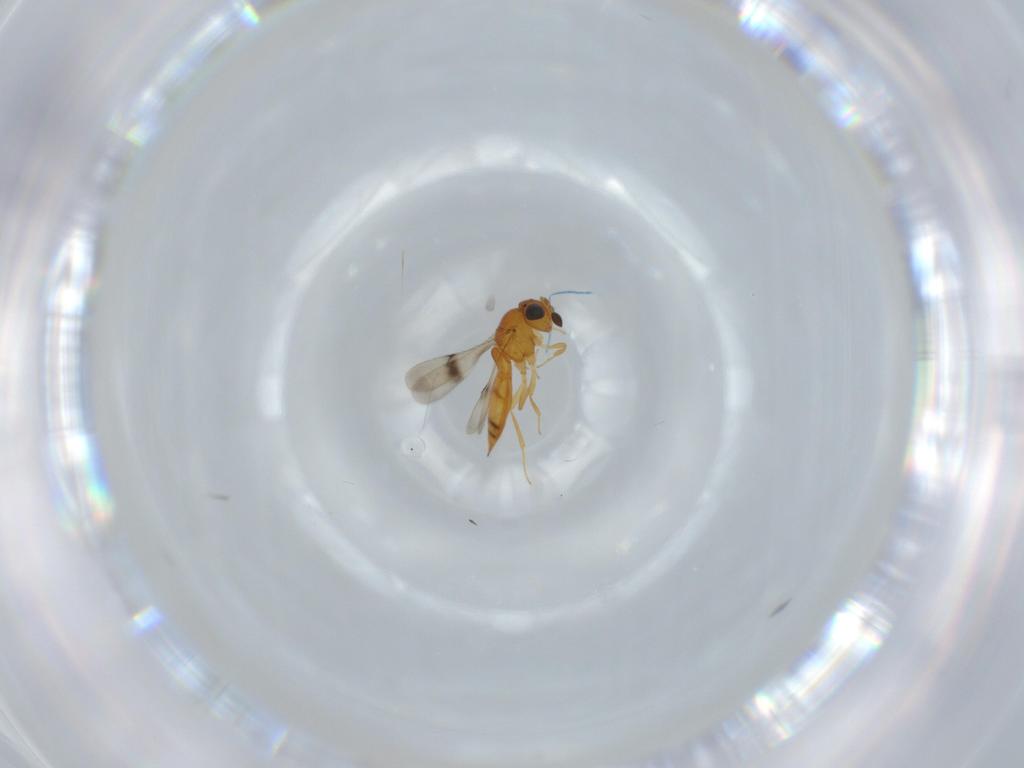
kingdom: Animalia
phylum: Arthropoda
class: Insecta
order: Hymenoptera
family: Scelionidae
